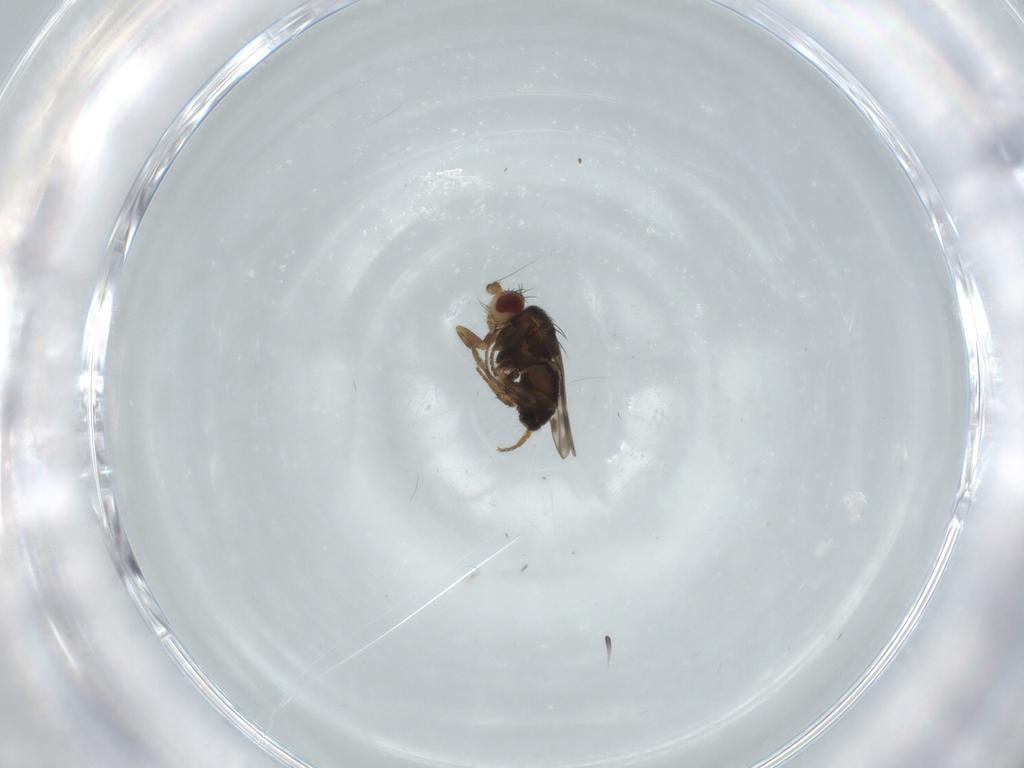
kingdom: Animalia
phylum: Arthropoda
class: Insecta
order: Diptera
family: Sphaeroceridae
